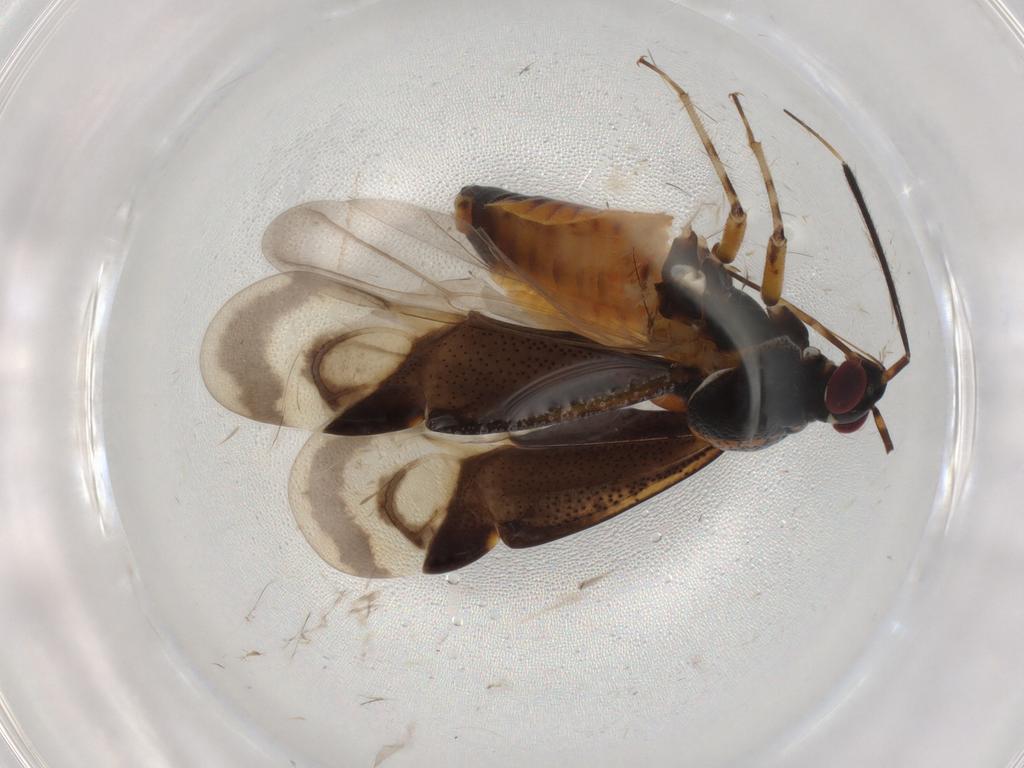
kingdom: Animalia
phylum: Arthropoda
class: Insecta
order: Hemiptera
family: Miridae
